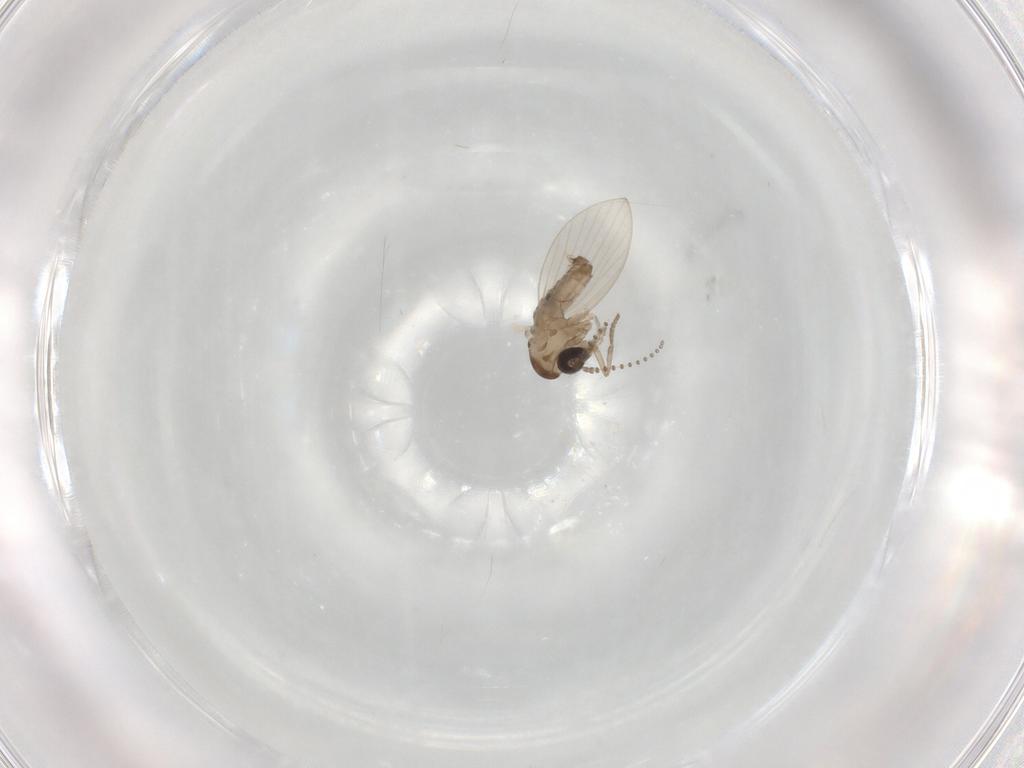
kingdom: Animalia
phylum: Arthropoda
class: Insecta
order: Diptera
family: Psychodidae
